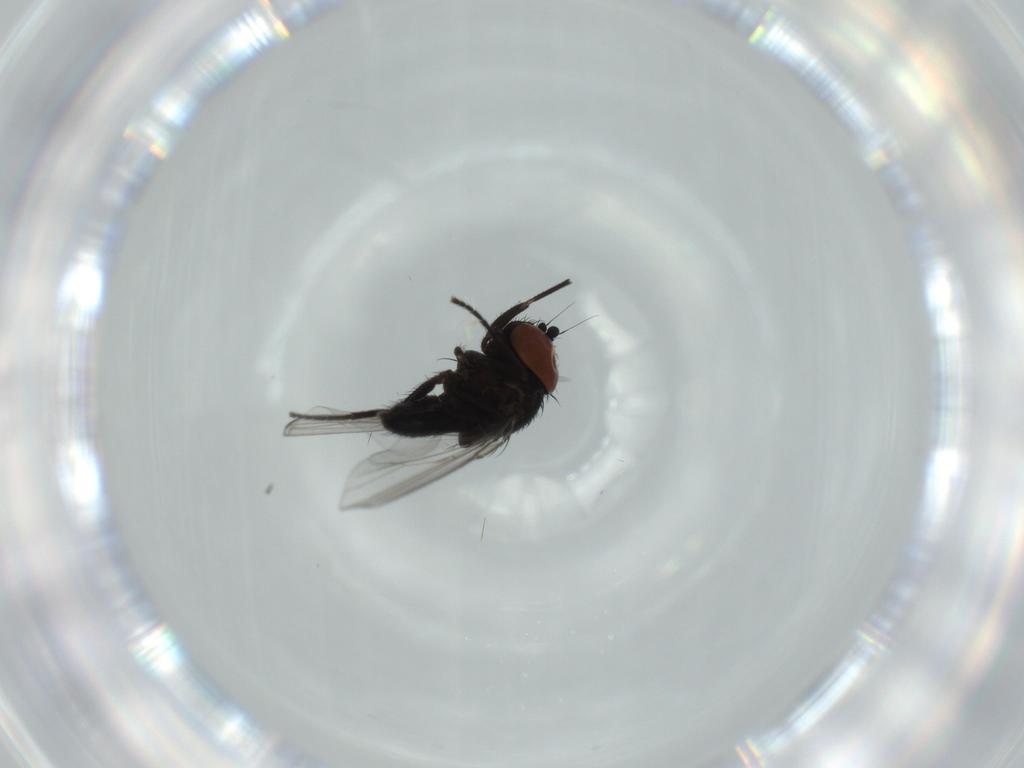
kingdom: Animalia
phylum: Arthropoda
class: Insecta
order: Diptera
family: Milichiidae
